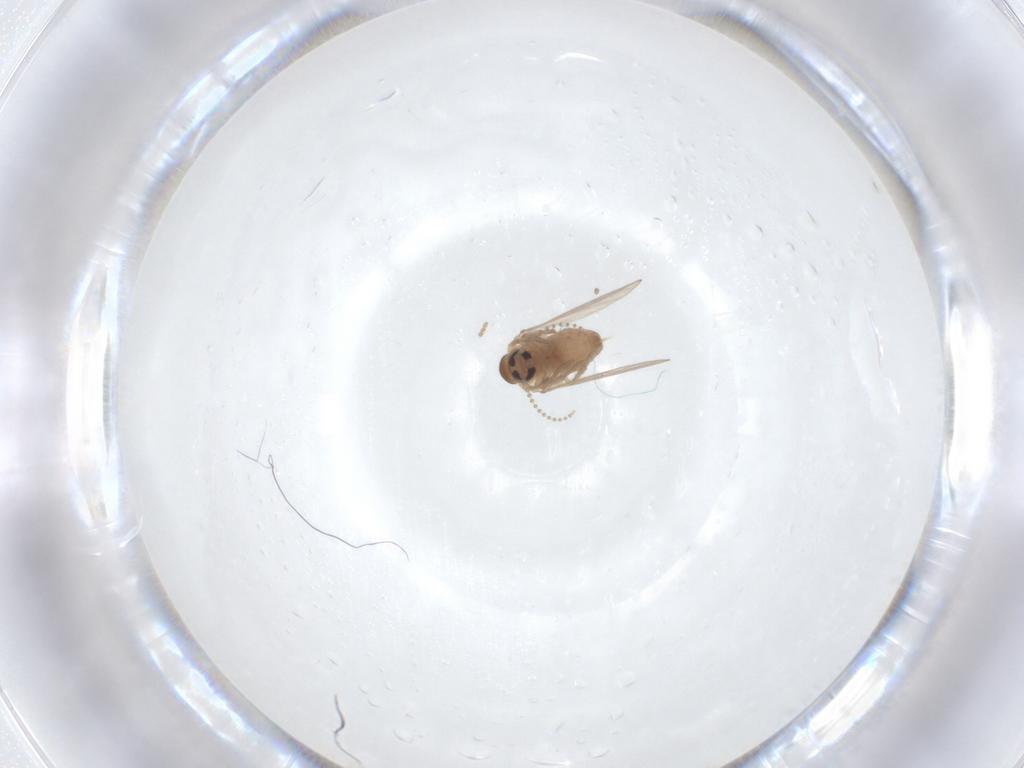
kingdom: Animalia
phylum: Arthropoda
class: Insecta
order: Diptera
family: Psychodidae
